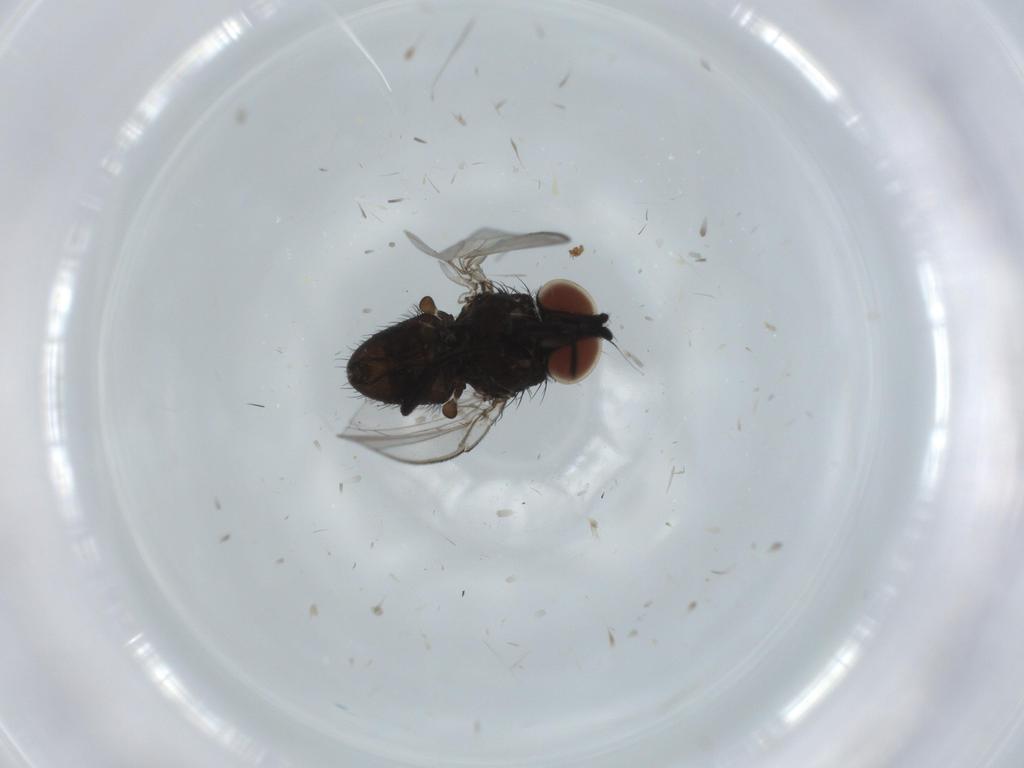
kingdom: Animalia
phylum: Arthropoda
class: Insecta
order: Diptera
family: Milichiidae
